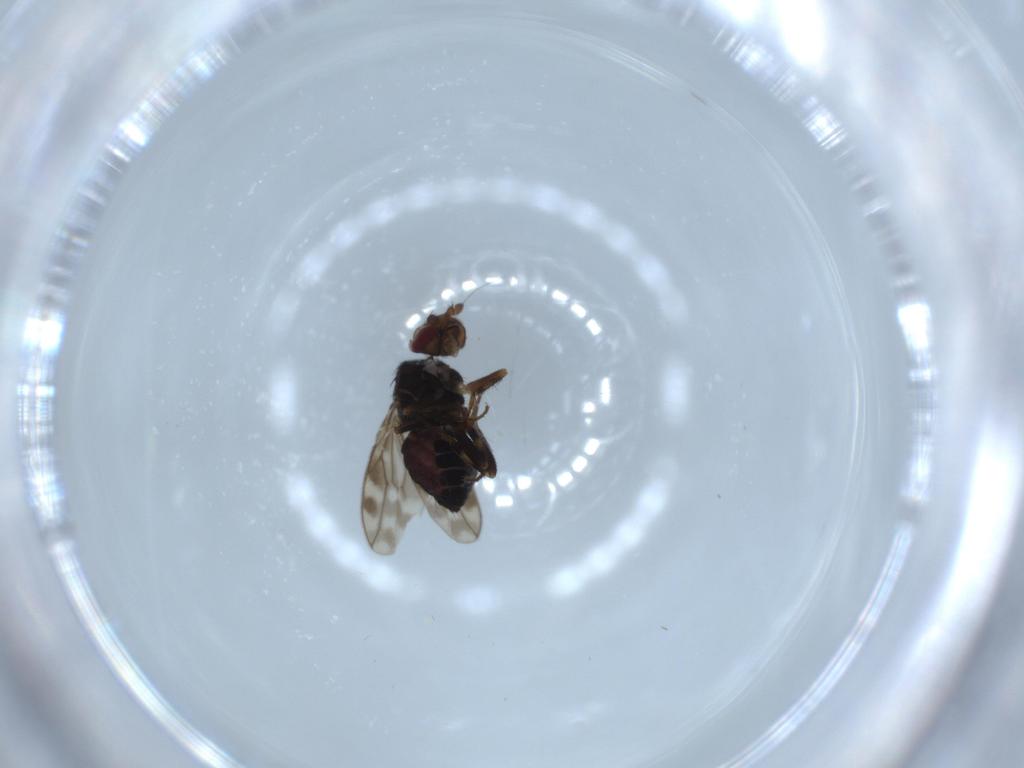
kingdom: Animalia
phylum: Arthropoda
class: Insecta
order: Diptera
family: Sphaeroceridae
